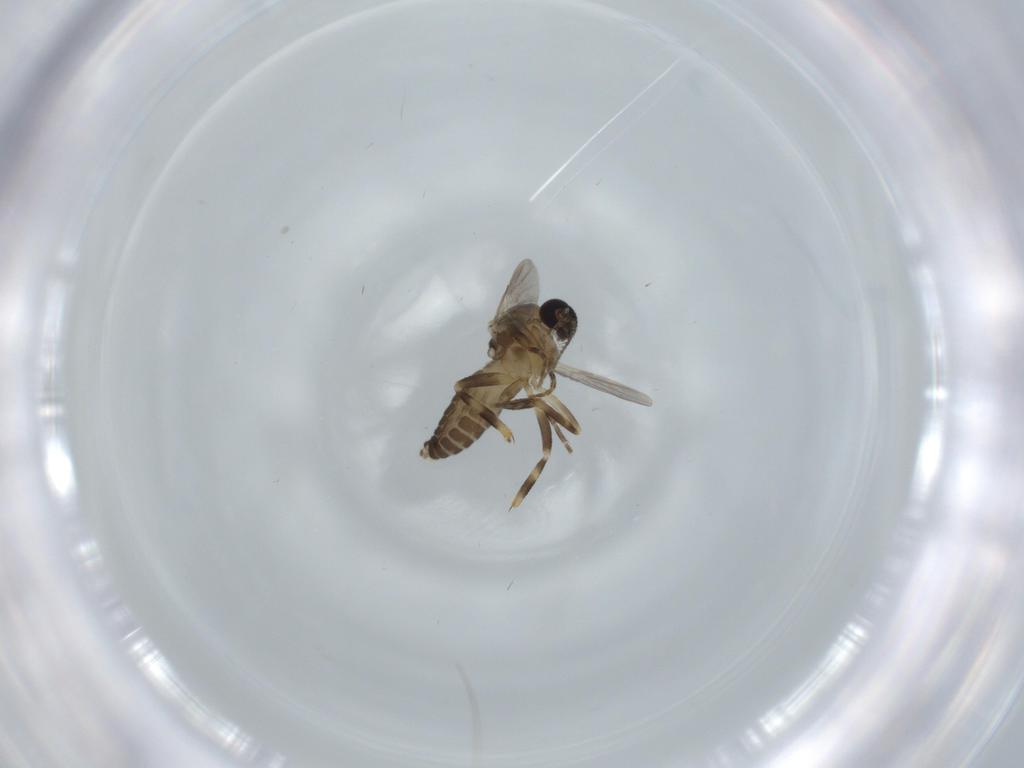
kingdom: Animalia
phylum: Arthropoda
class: Insecta
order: Diptera
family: Ceratopogonidae
